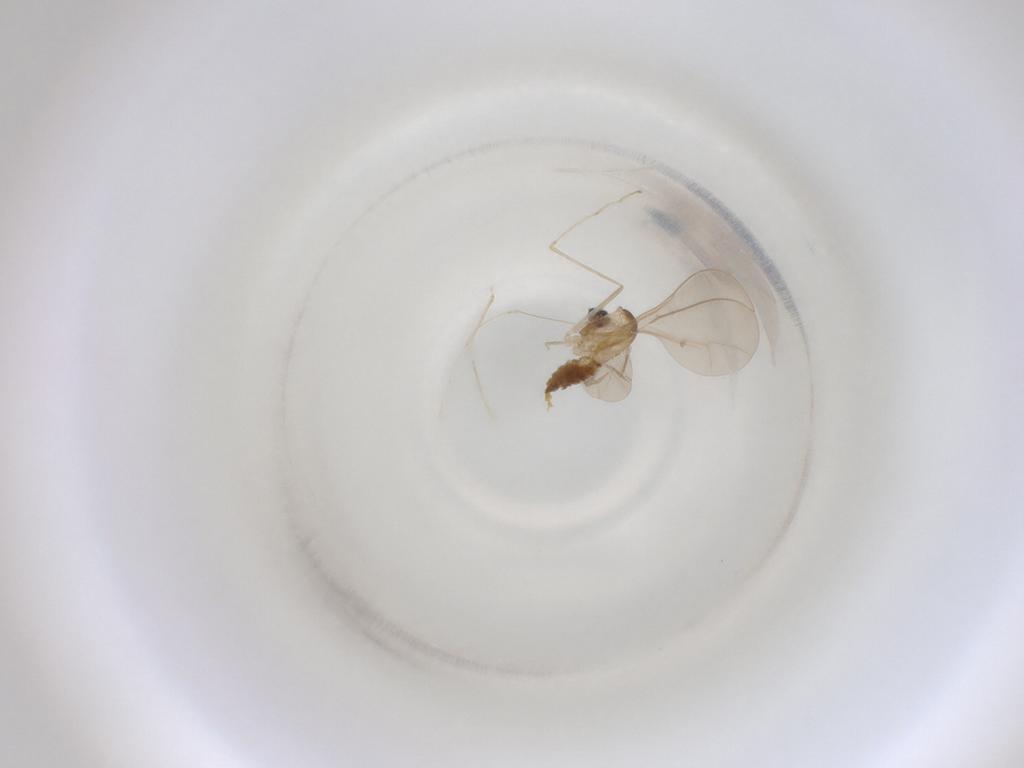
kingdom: Animalia
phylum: Arthropoda
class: Insecta
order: Diptera
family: Cecidomyiidae
